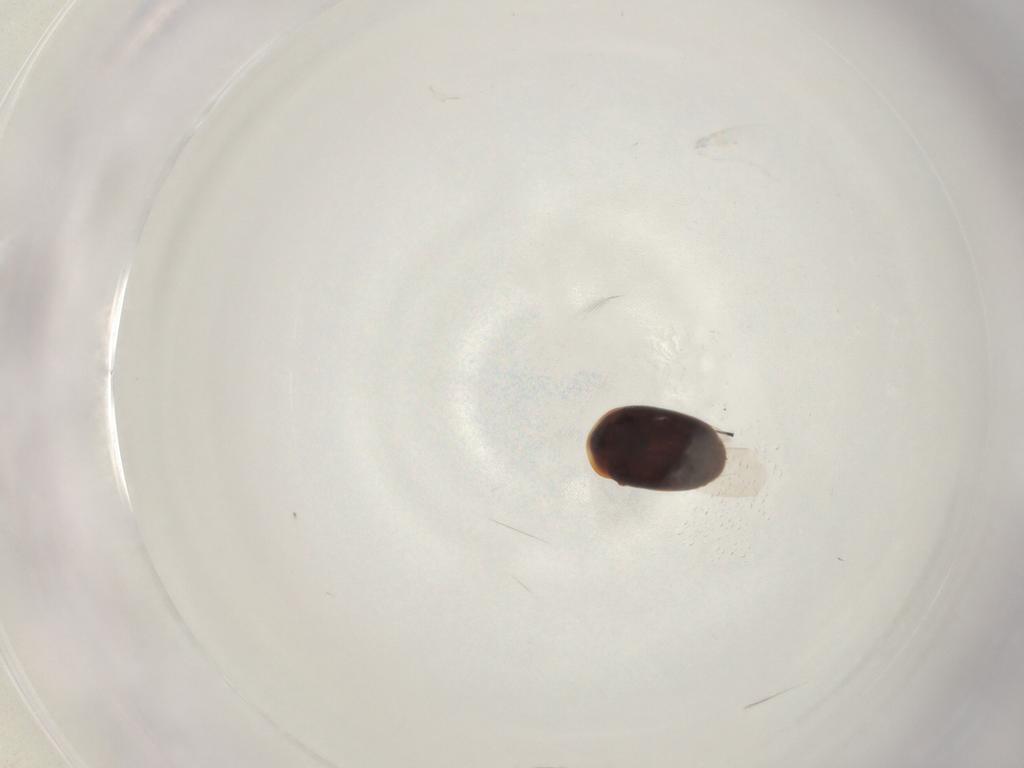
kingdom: Animalia
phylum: Arthropoda
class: Insecta
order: Coleoptera
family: Corylophidae
